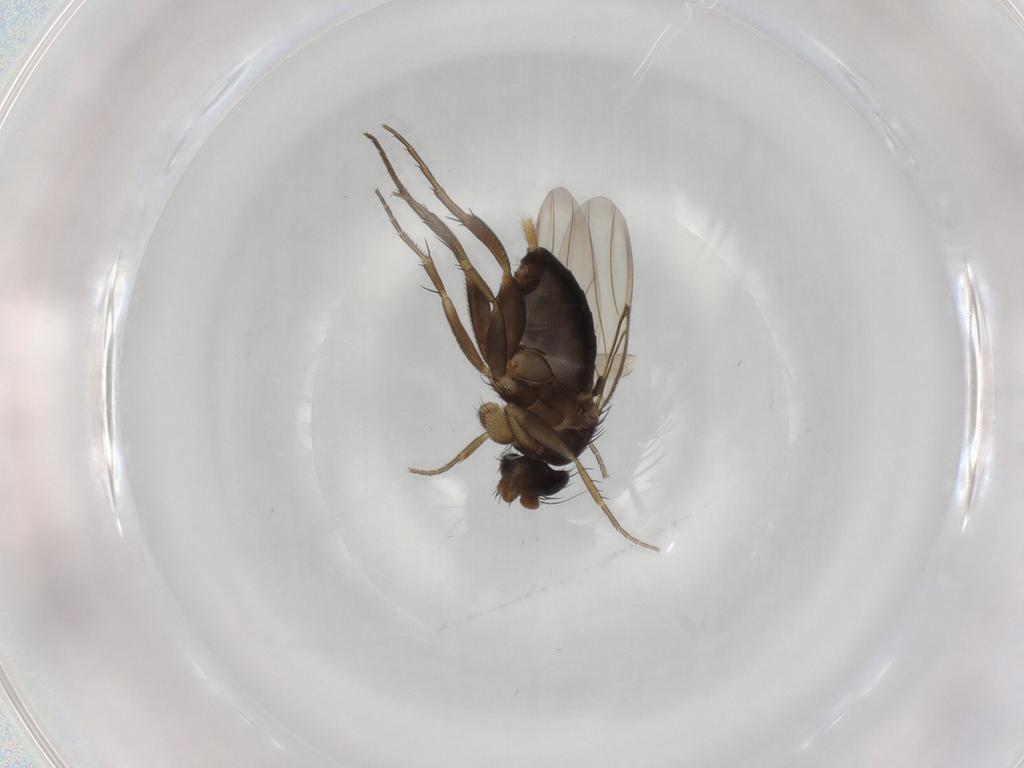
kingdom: Animalia
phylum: Arthropoda
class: Insecta
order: Diptera
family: Phoridae
